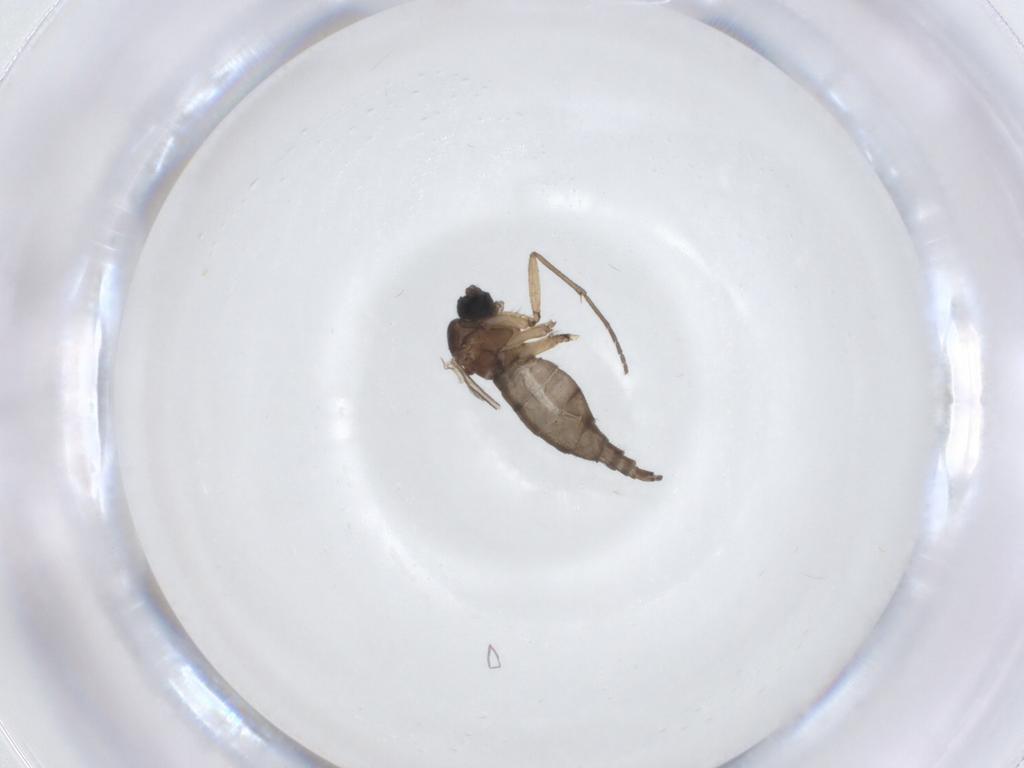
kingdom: Animalia
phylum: Arthropoda
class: Insecta
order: Diptera
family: Sciaridae
